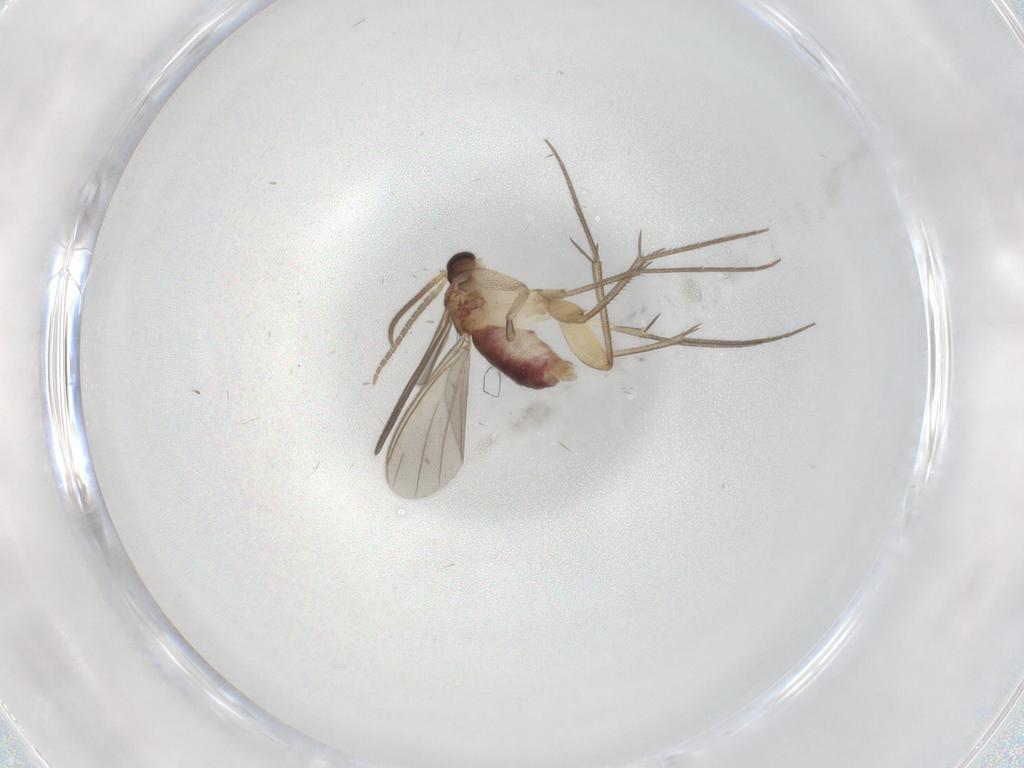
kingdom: Animalia
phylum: Arthropoda
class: Insecta
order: Diptera
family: Mycetophilidae
